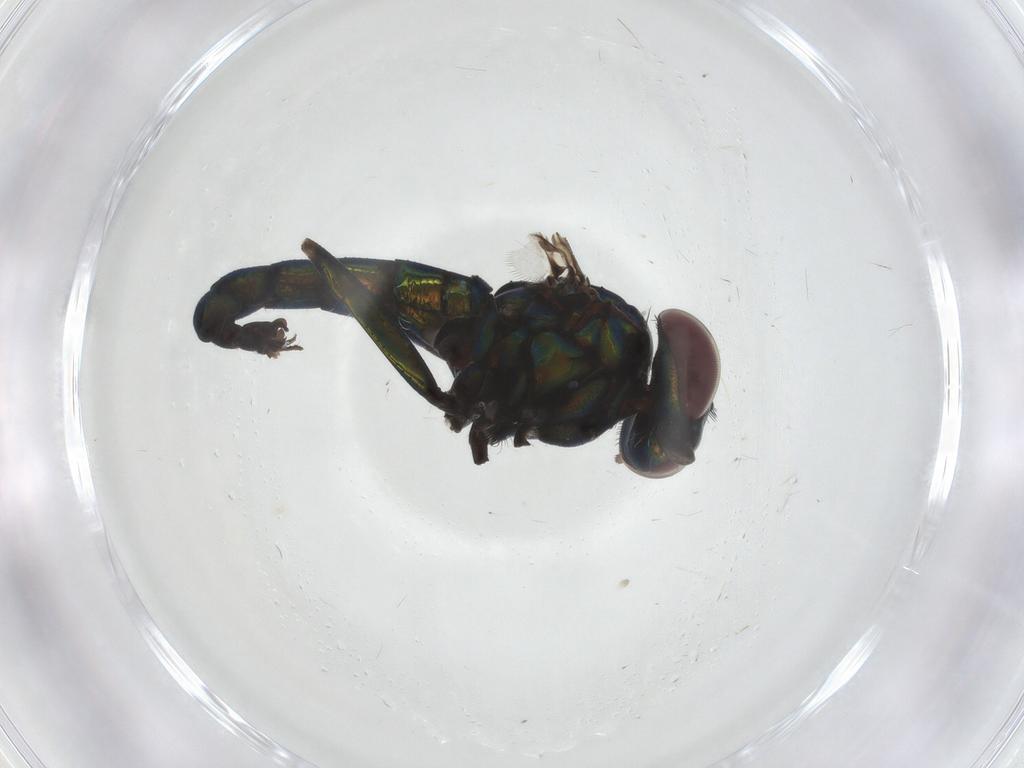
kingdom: Animalia
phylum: Arthropoda
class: Insecta
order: Diptera
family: Dolichopodidae
